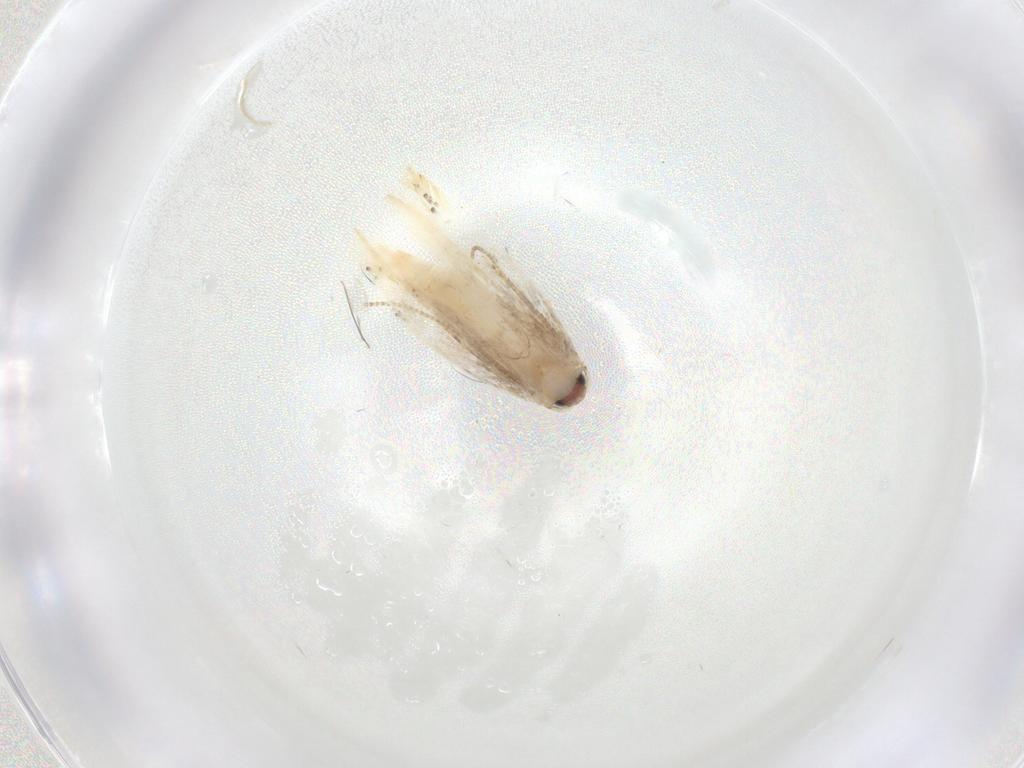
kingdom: Animalia
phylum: Arthropoda
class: Insecta
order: Lepidoptera
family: Tineidae
